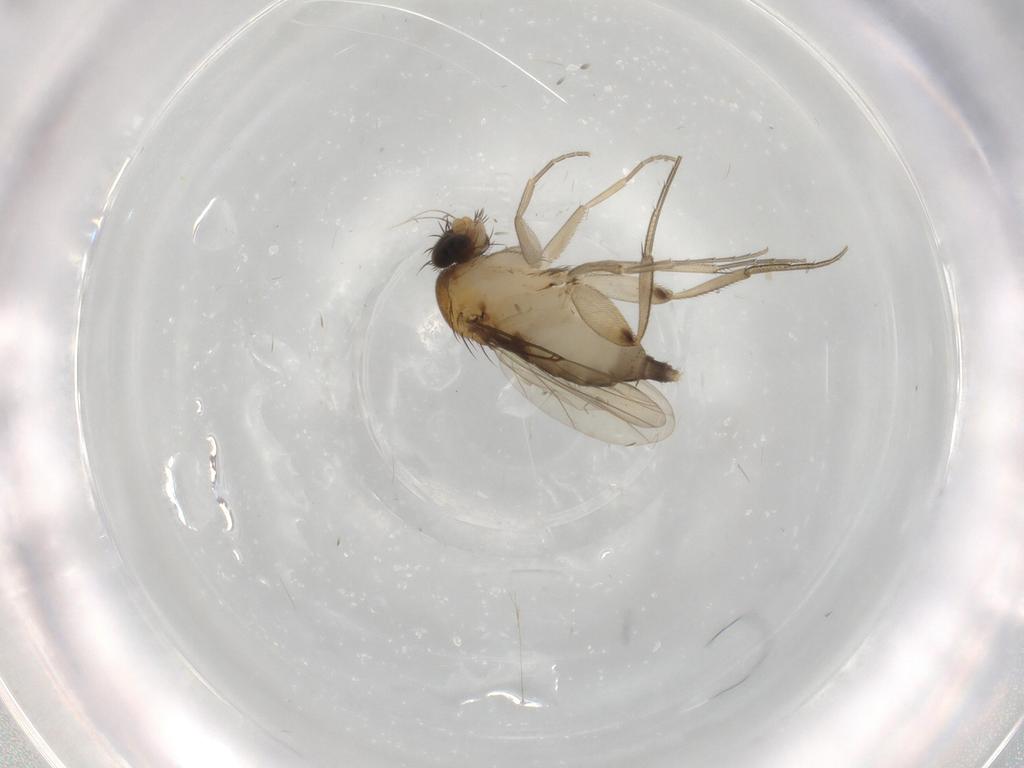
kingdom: Animalia
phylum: Arthropoda
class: Insecta
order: Diptera
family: Phoridae
